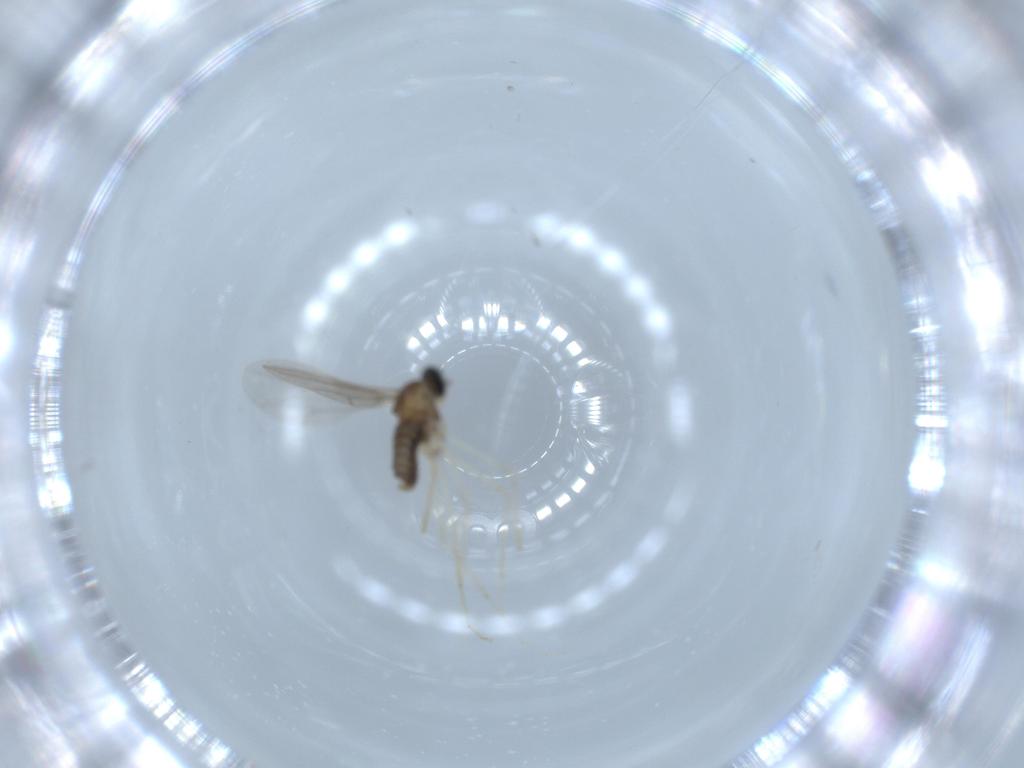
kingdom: Animalia
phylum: Arthropoda
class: Insecta
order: Diptera
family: Cecidomyiidae
